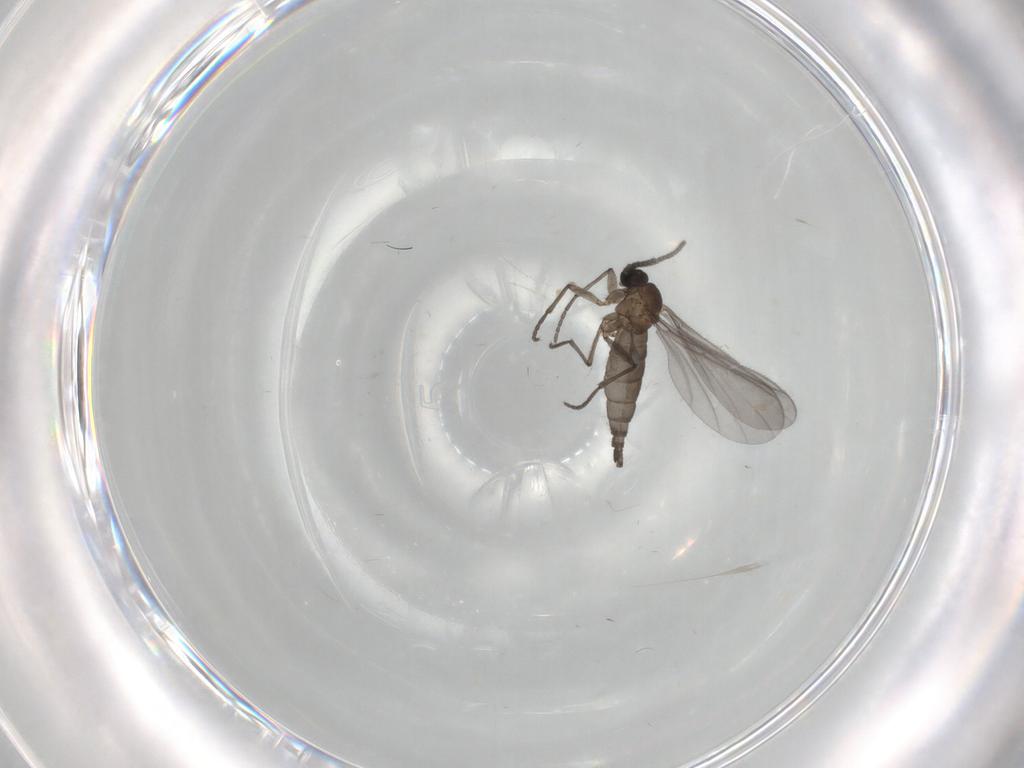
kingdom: Animalia
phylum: Arthropoda
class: Insecta
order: Diptera
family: Sciaridae
